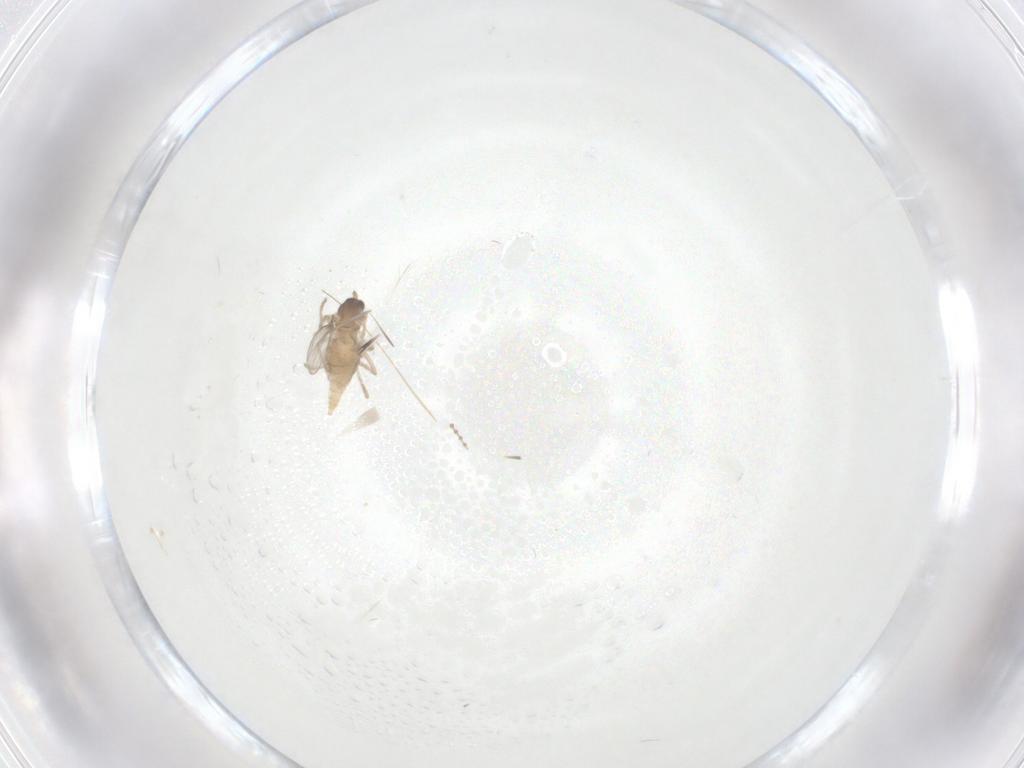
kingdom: Animalia
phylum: Arthropoda
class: Insecta
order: Diptera
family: Cecidomyiidae
